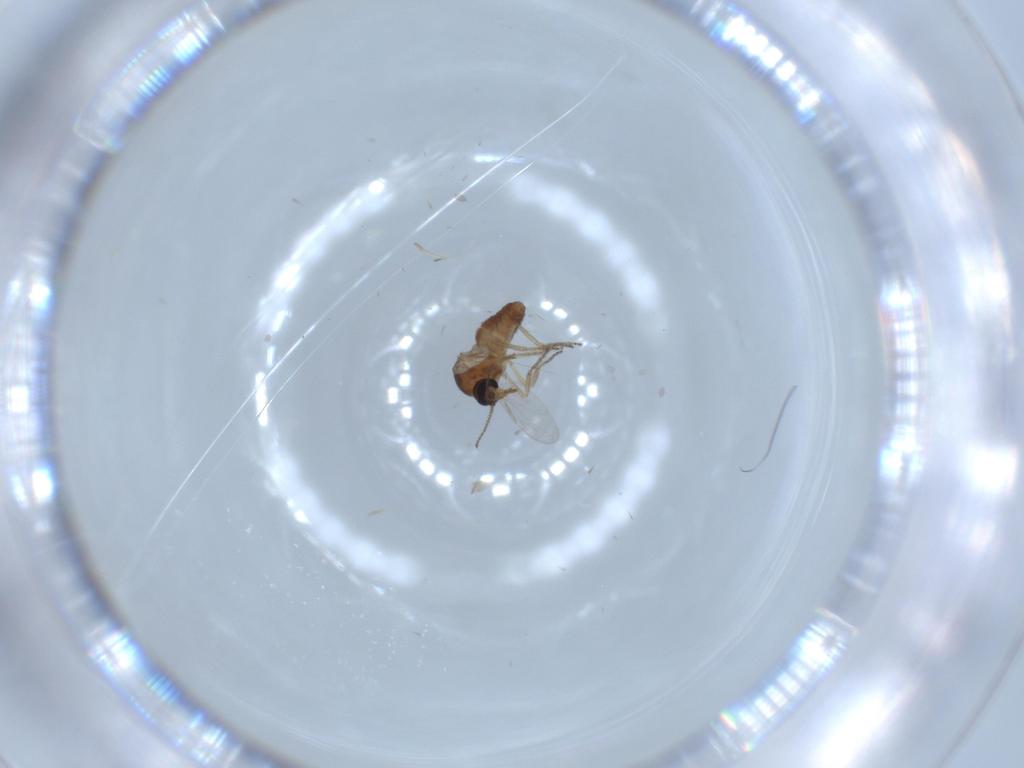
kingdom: Animalia
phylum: Arthropoda
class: Insecta
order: Diptera
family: Ceratopogonidae
